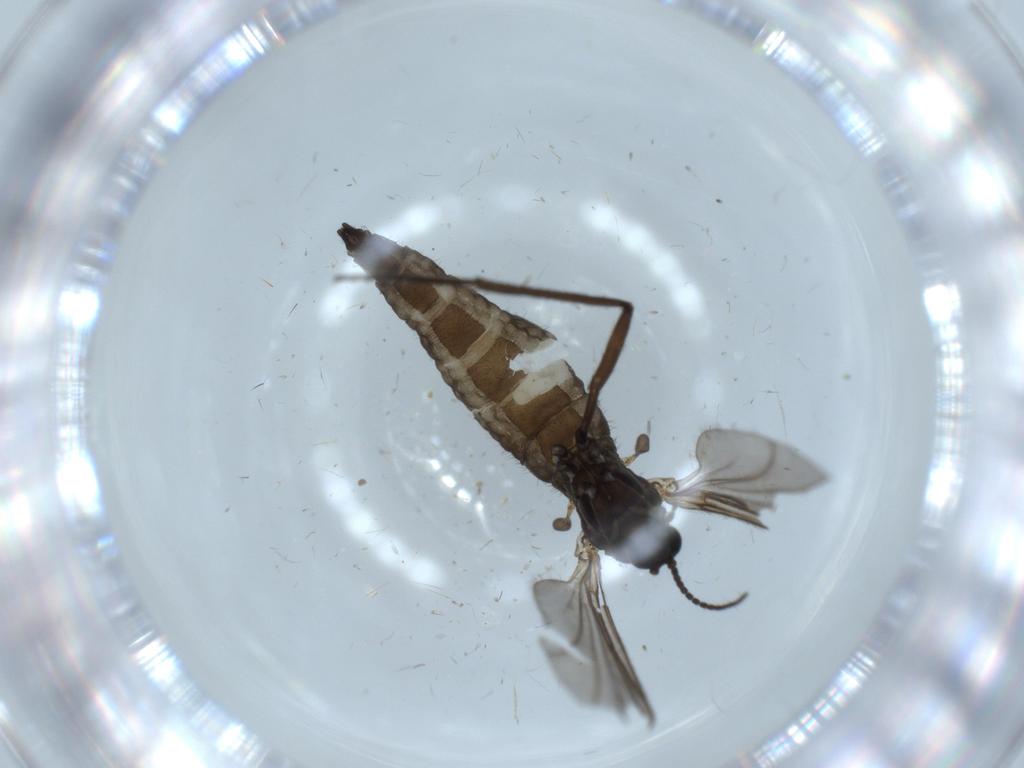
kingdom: Animalia
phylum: Arthropoda
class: Insecta
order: Diptera
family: Sciaridae
